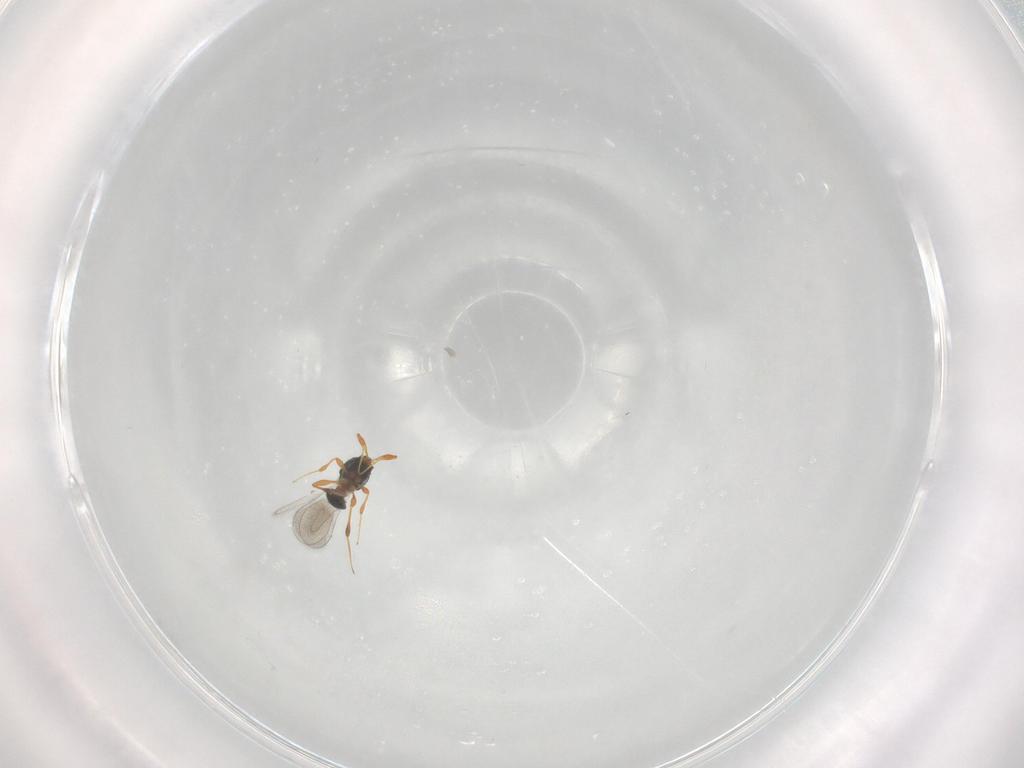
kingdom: Animalia
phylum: Arthropoda
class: Insecta
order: Hymenoptera
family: Platygastridae
